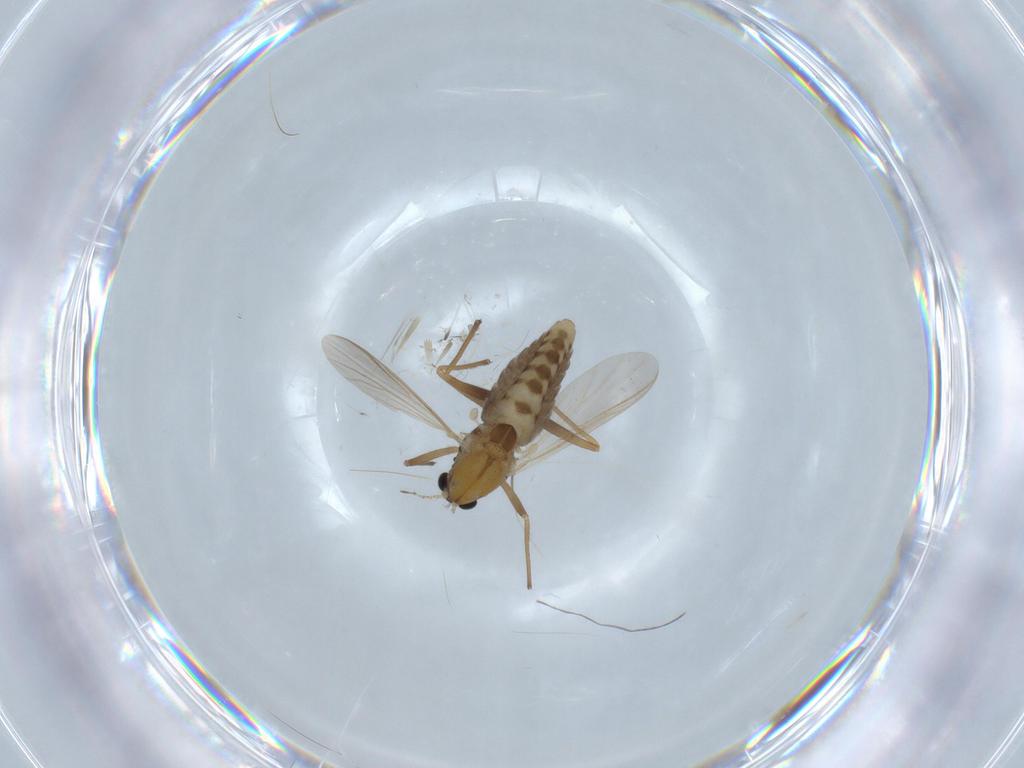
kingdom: Animalia
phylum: Arthropoda
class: Insecta
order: Diptera
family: Chironomidae
